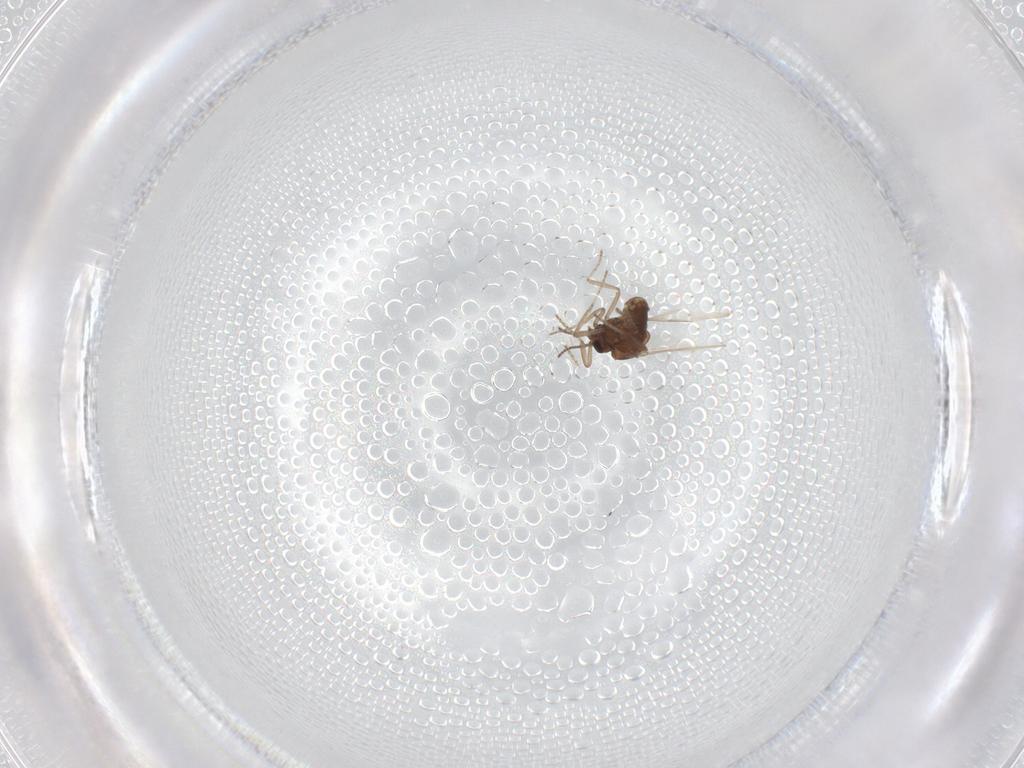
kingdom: Animalia
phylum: Arthropoda
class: Insecta
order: Diptera
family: Ceratopogonidae
